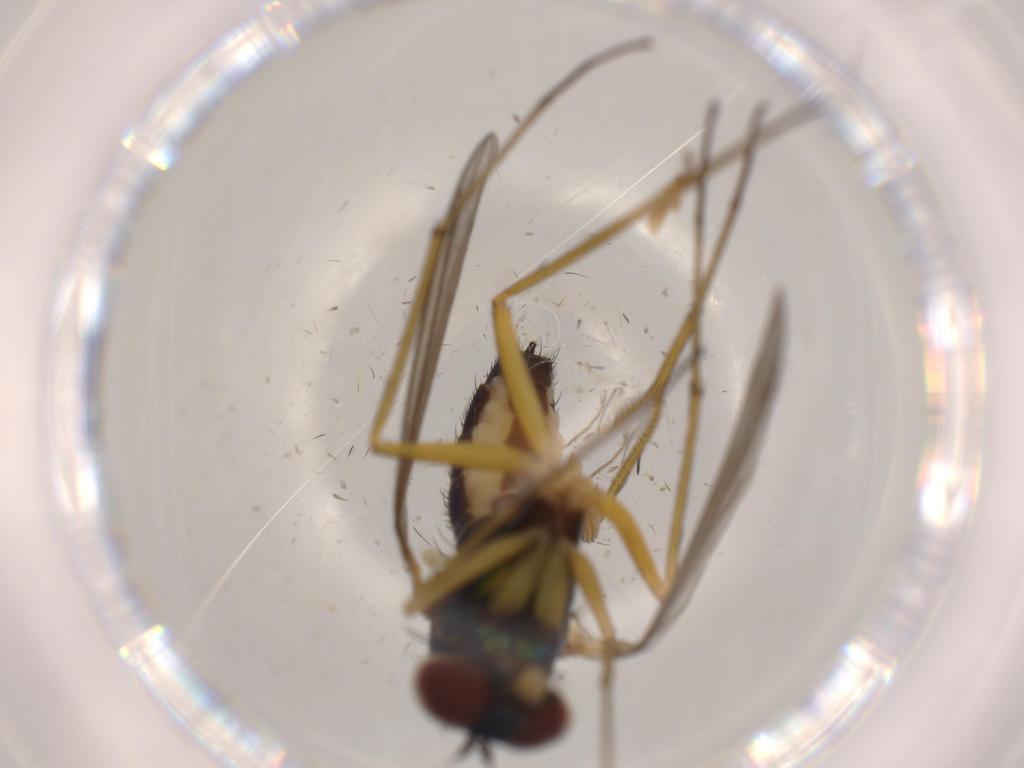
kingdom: Animalia
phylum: Arthropoda
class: Insecta
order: Diptera
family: Dolichopodidae
